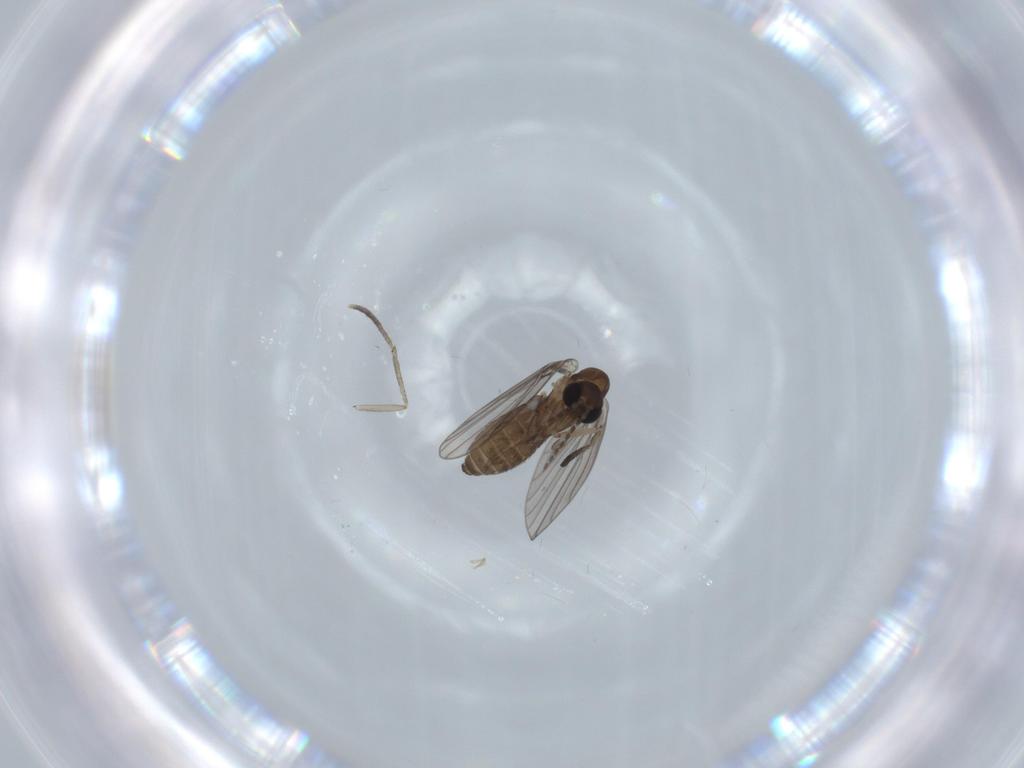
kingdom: Animalia
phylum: Arthropoda
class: Insecta
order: Diptera
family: Psychodidae
